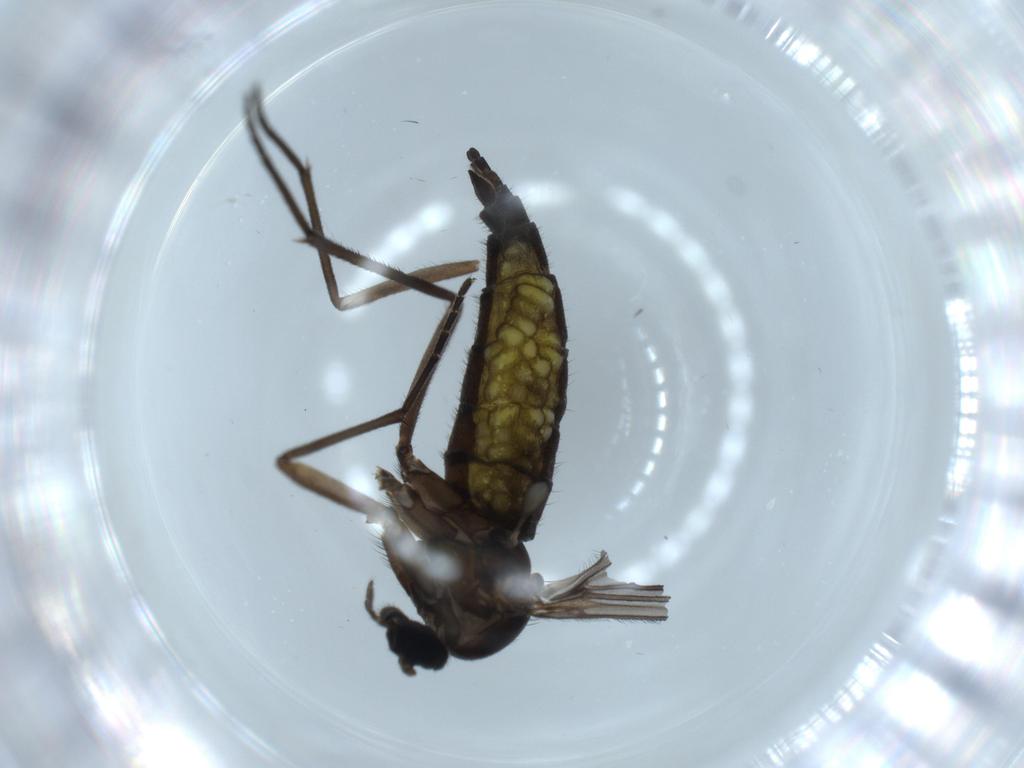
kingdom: Animalia
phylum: Arthropoda
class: Insecta
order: Diptera
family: Sciaridae
